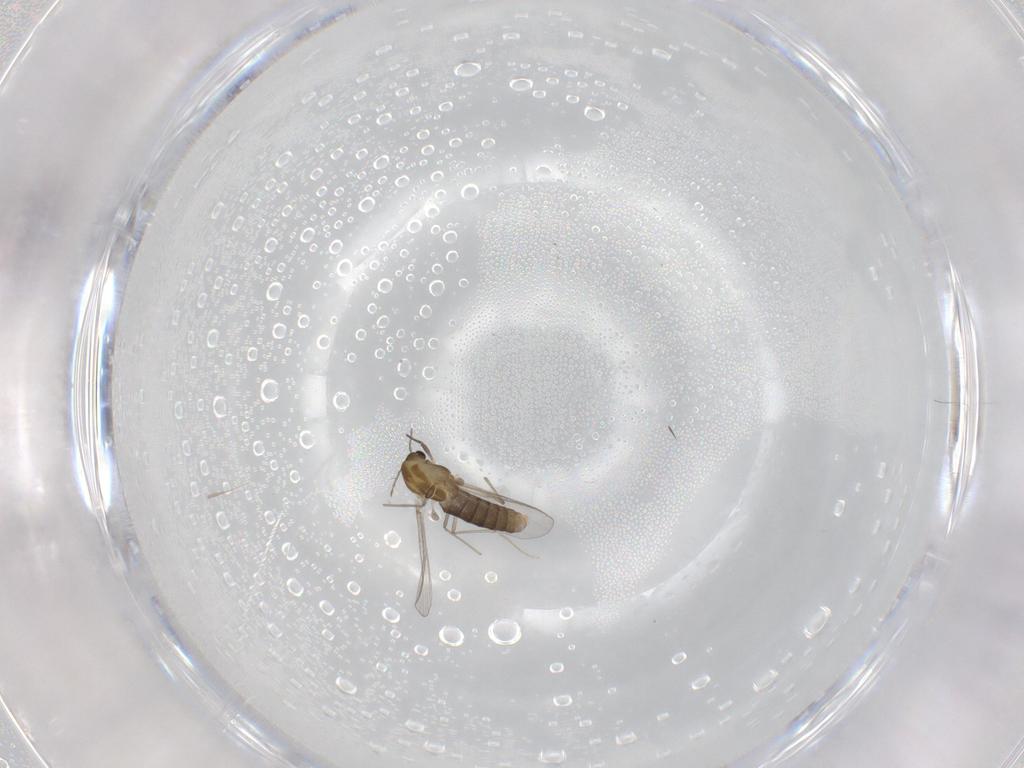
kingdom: Animalia
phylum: Arthropoda
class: Insecta
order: Diptera
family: Chironomidae
